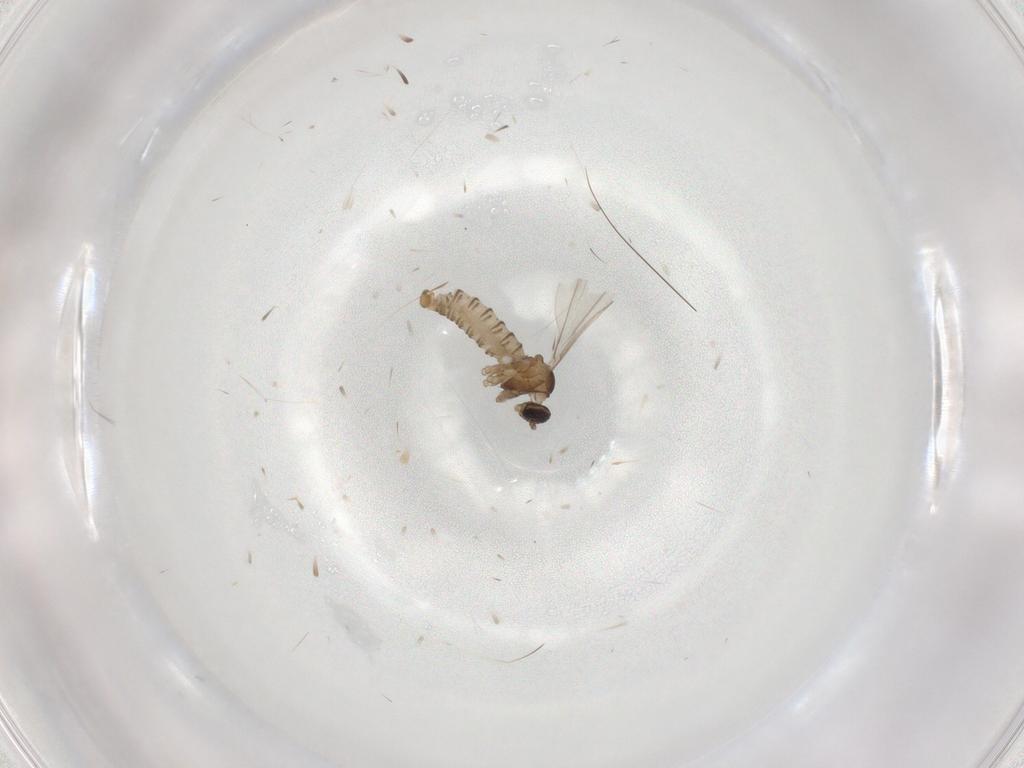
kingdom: Animalia
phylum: Arthropoda
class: Insecta
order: Diptera
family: Cecidomyiidae
